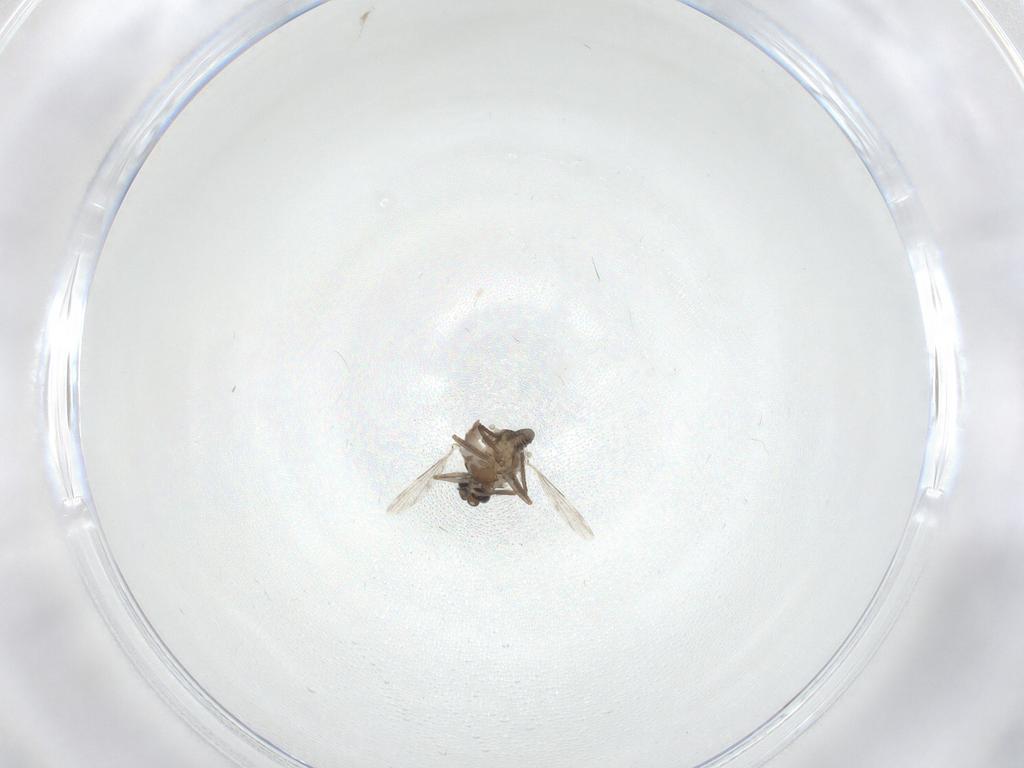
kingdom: Animalia
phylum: Arthropoda
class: Insecta
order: Diptera
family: Ceratopogonidae
